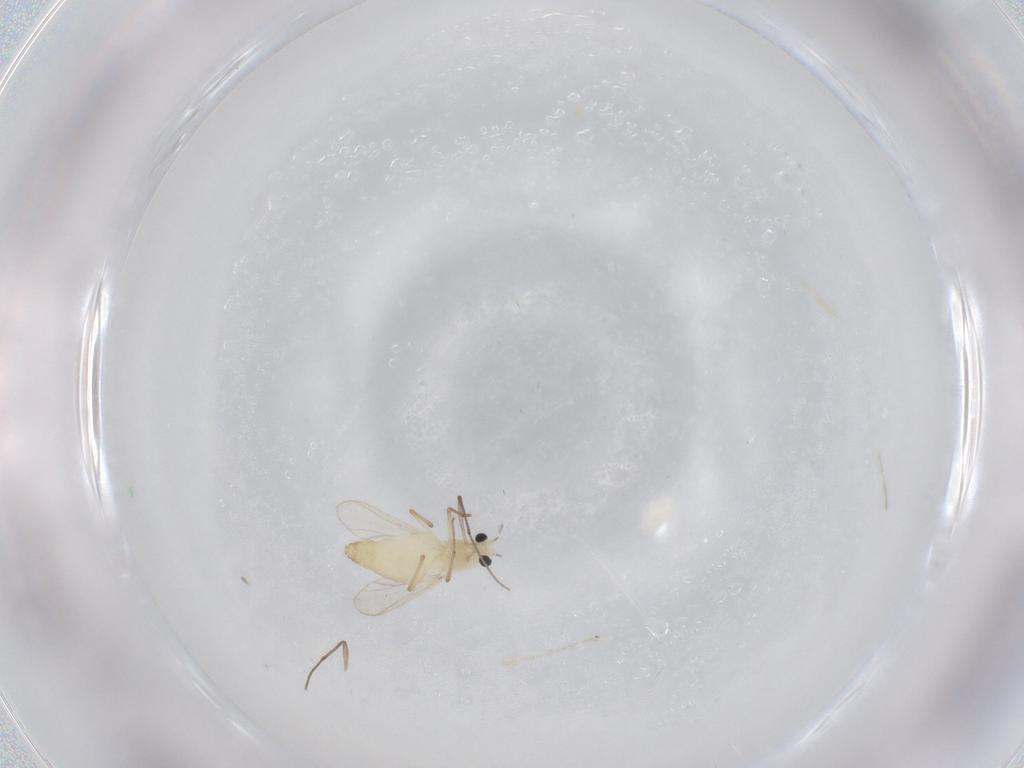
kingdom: Animalia
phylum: Arthropoda
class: Insecta
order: Diptera
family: Chironomidae
